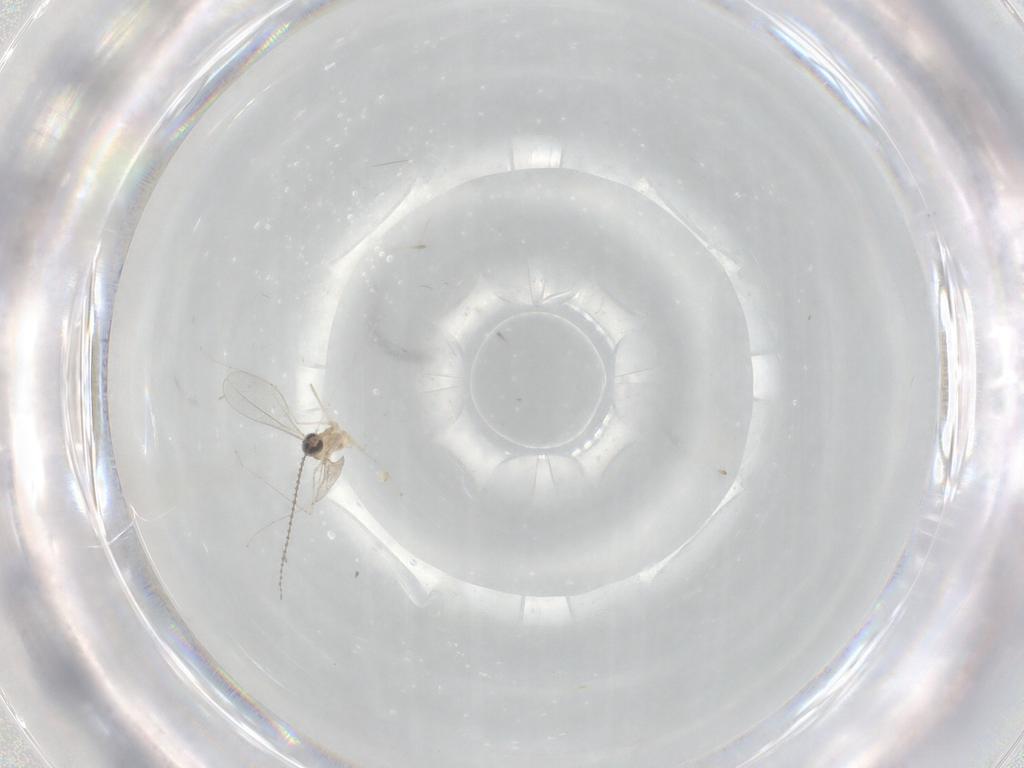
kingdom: Animalia
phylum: Arthropoda
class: Insecta
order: Diptera
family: Cecidomyiidae
